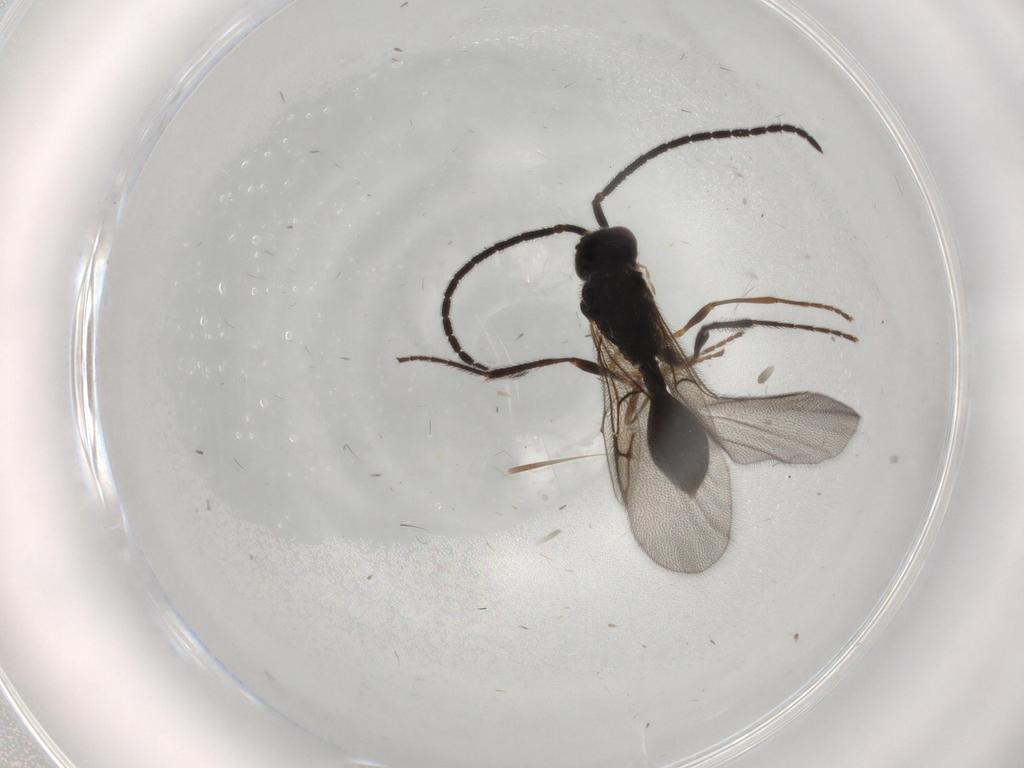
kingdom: Animalia
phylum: Arthropoda
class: Insecta
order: Hymenoptera
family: Diapriidae
